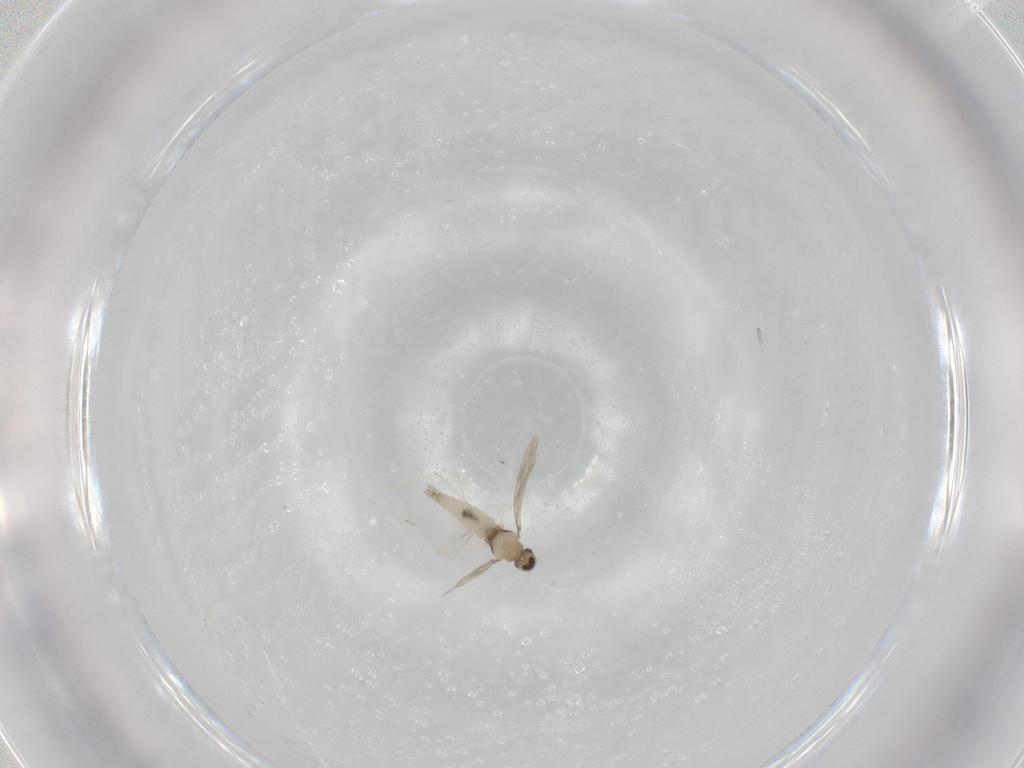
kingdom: Animalia
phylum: Arthropoda
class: Insecta
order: Diptera
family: Cecidomyiidae
